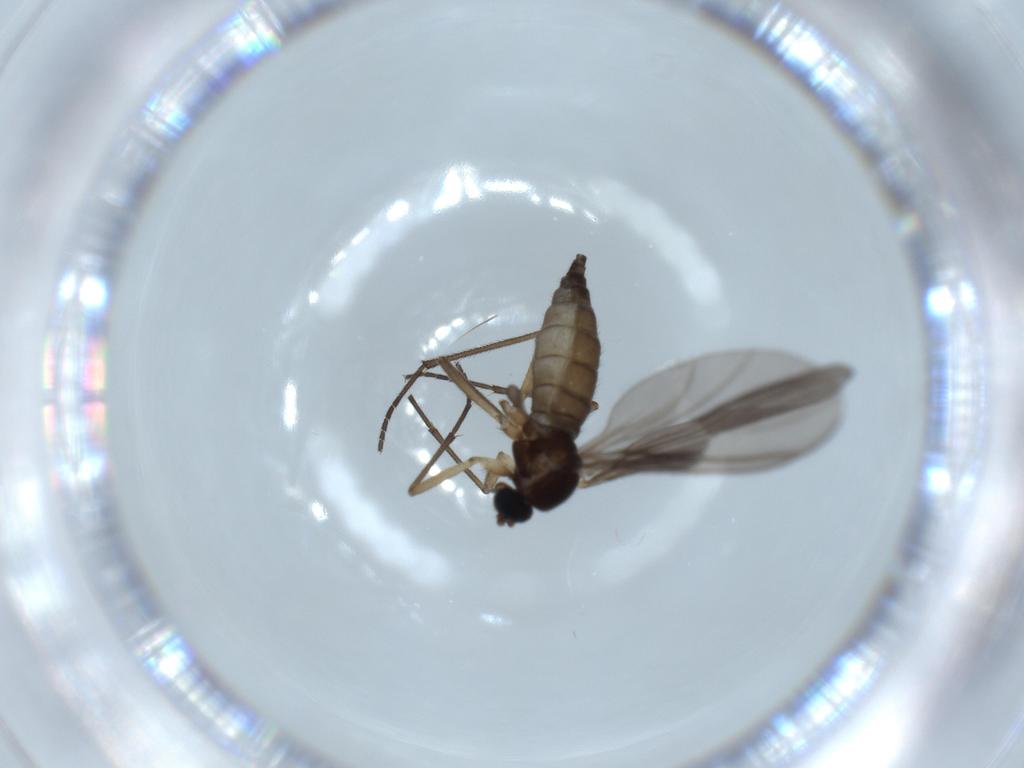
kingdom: Animalia
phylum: Arthropoda
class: Insecta
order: Diptera
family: Sciaridae
